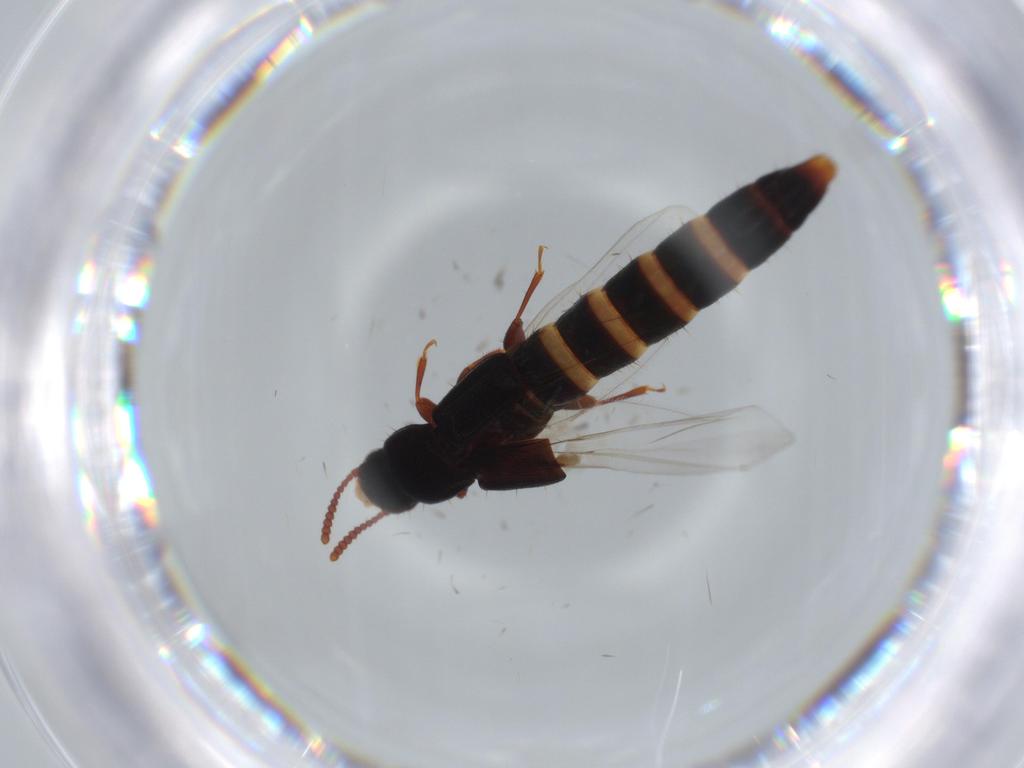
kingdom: Animalia
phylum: Arthropoda
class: Insecta
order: Coleoptera
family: Staphylinidae
